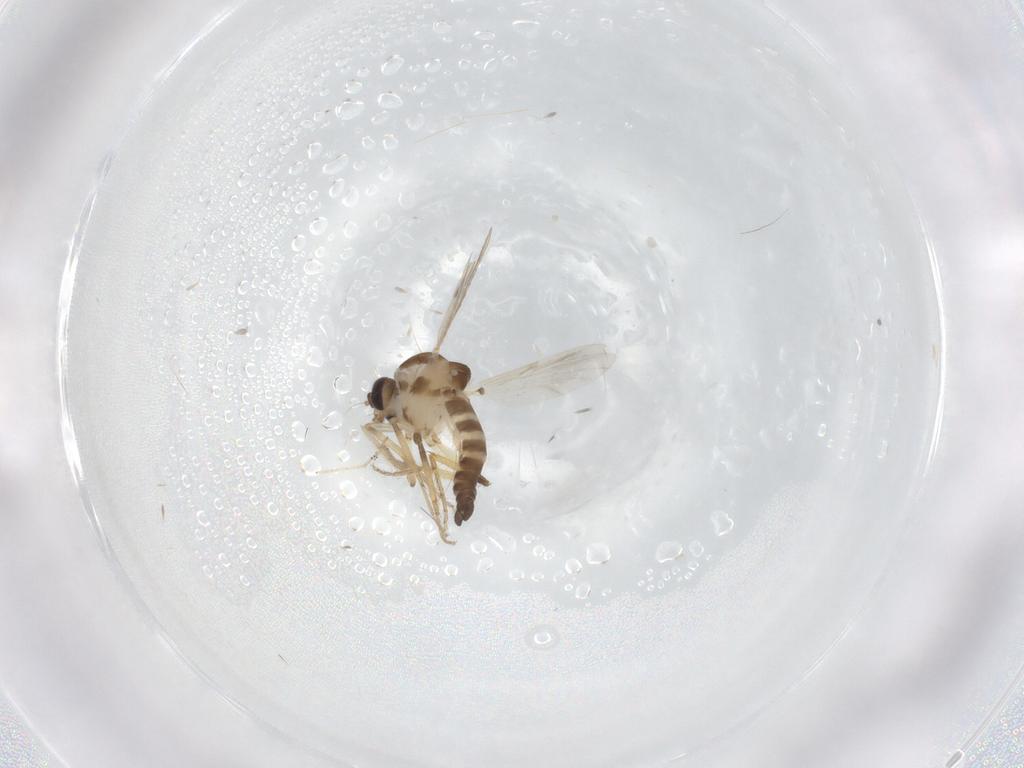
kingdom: Animalia
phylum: Arthropoda
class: Insecta
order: Diptera
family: Ceratopogonidae
